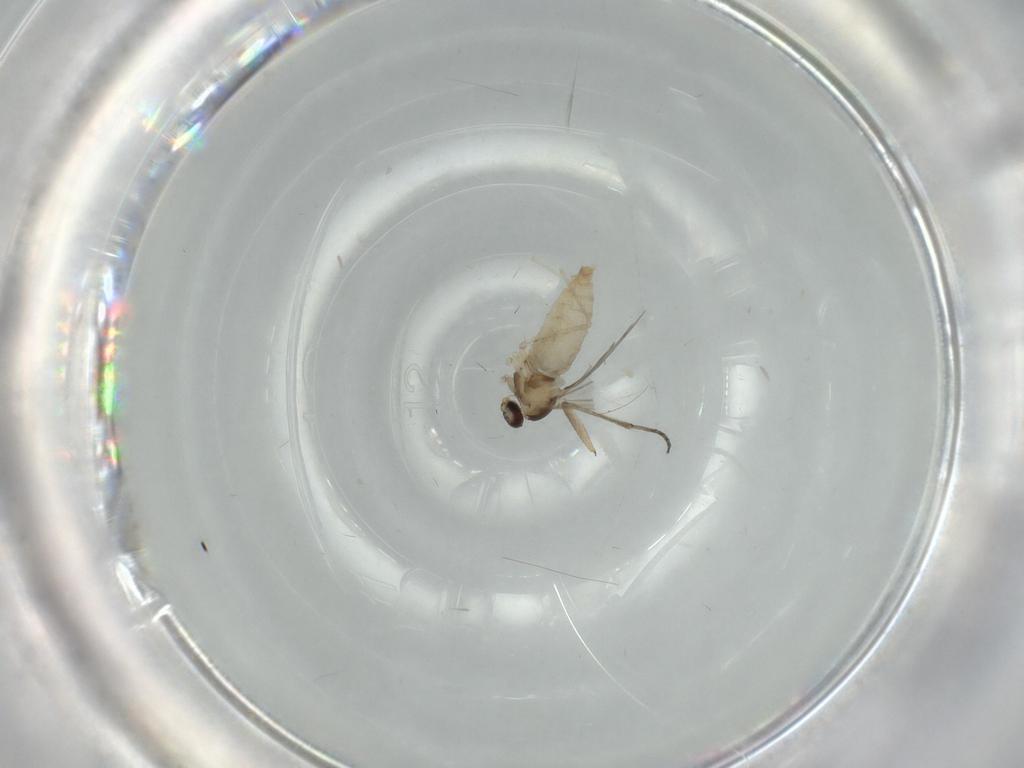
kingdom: Animalia
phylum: Arthropoda
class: Insecta
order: Diptera
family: Cecidomyiidae
